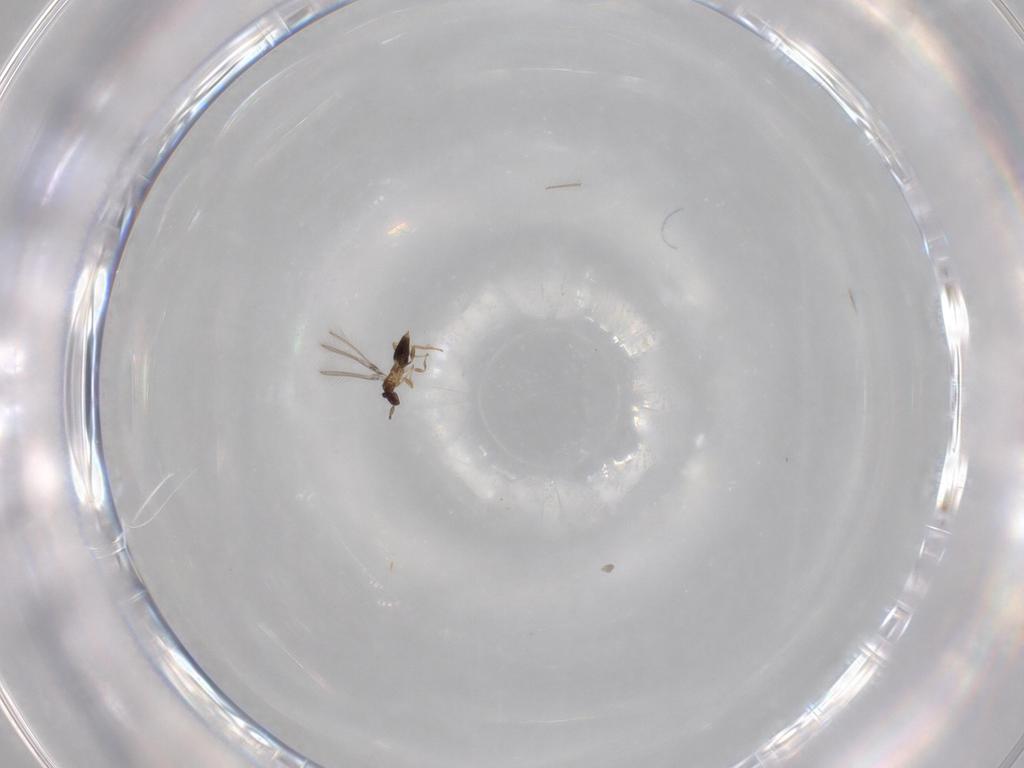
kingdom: Animalia
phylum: Arthropoda
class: Insecta
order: Hymenoptera
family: Mymaridae
